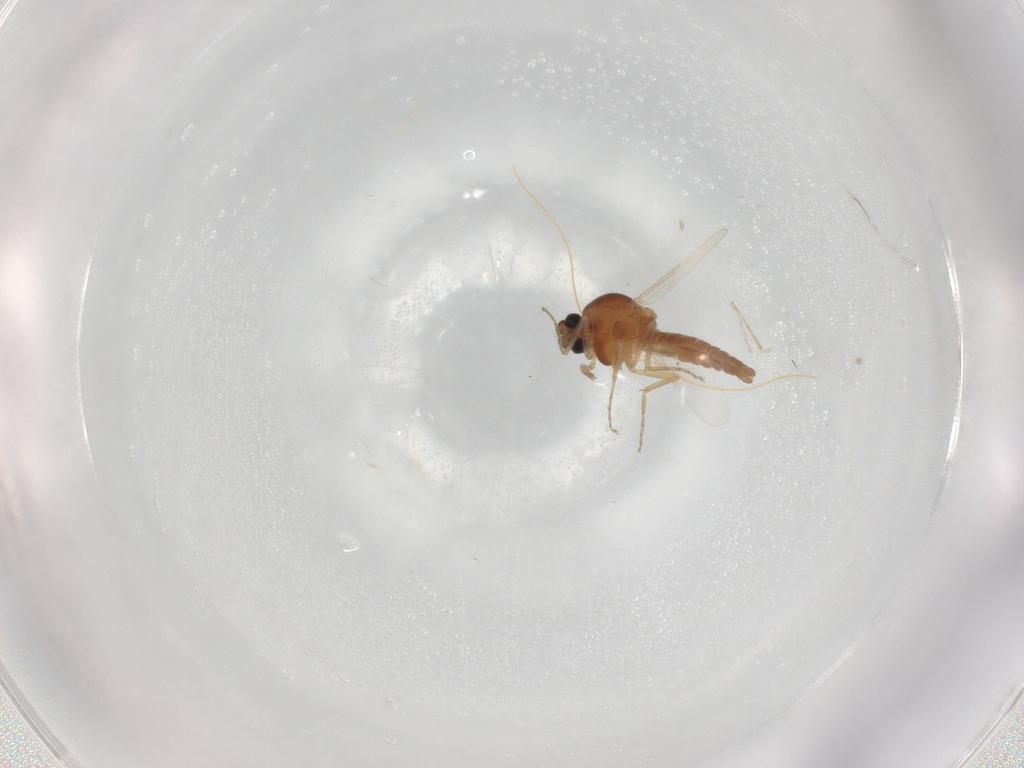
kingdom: Animalia
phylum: Arthropoda
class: Insecta
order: Diptera
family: Ceratopogonidae
